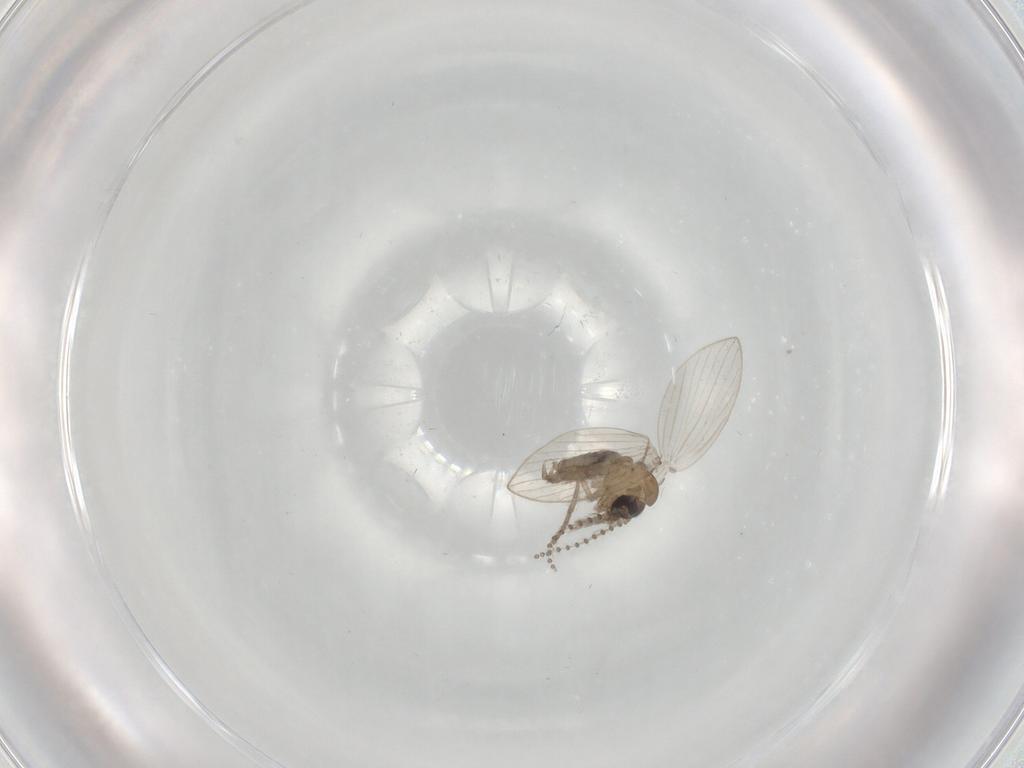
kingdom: Animalia
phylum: Arthropoda
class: Insecta
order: Diptera
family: Psychodidae
